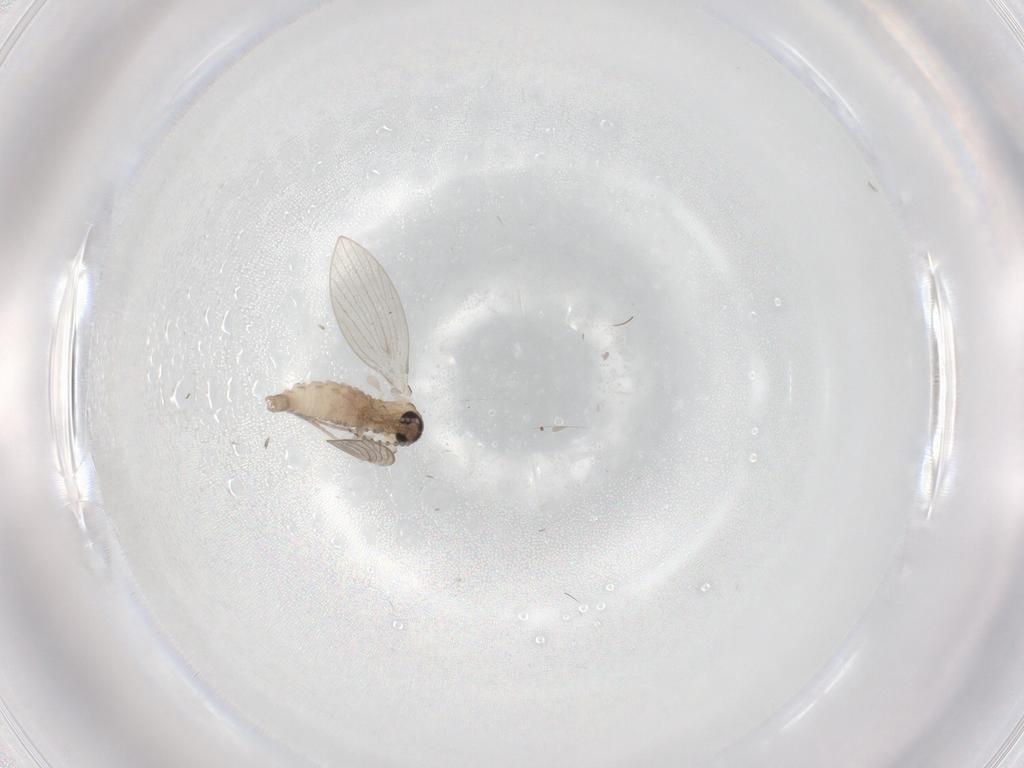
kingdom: Animalia
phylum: Arthropoda
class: Insecta
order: Diptera
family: Psychodidae
